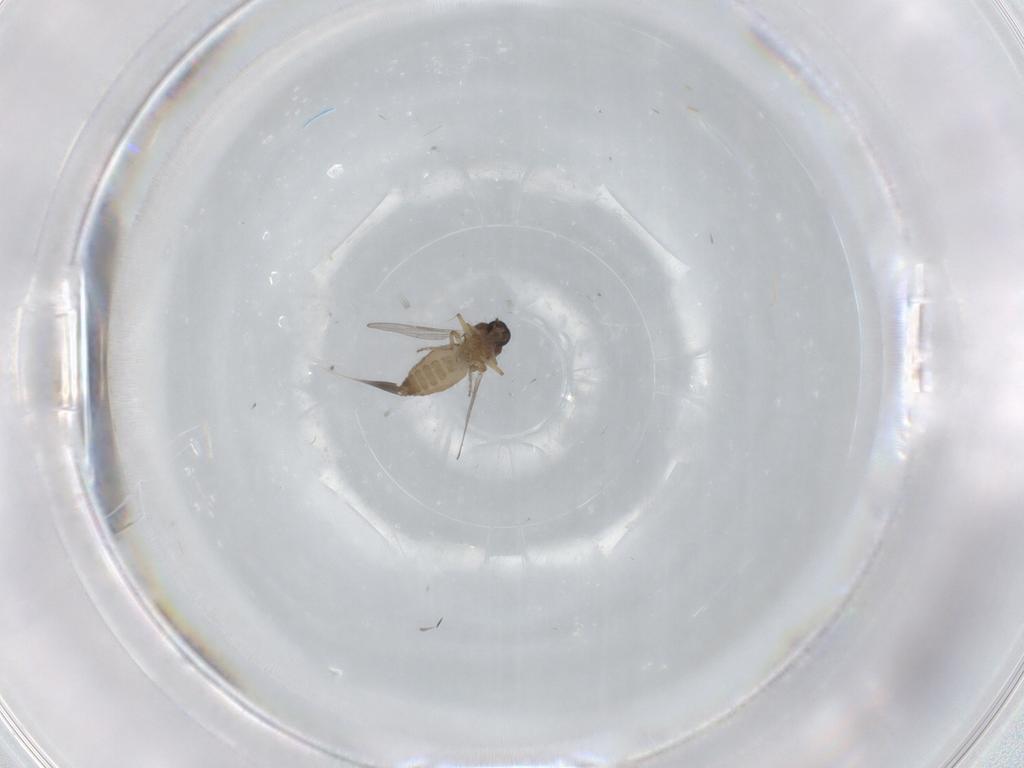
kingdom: Animalia
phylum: Arthropoda
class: Insecta
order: Diptera
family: Ceratopogonidae
